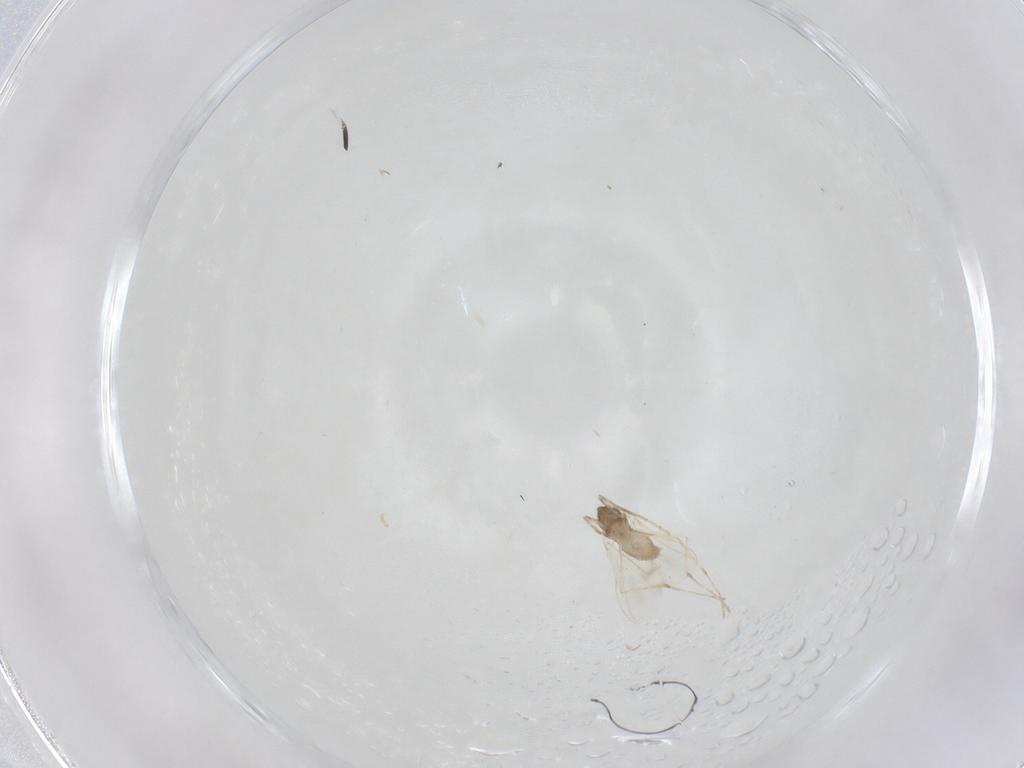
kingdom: Animalia
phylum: Arthropoda
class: Insecta
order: Diptera
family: Cecidomyiidae
